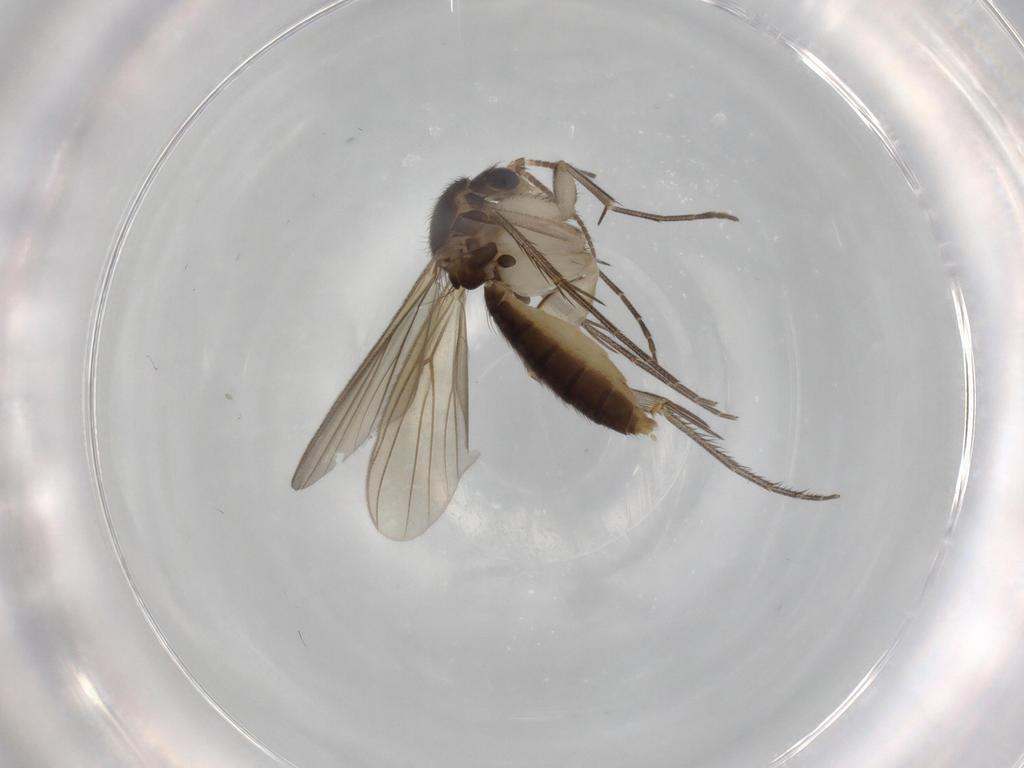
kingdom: Animalia
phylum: Arthropoda
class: Insecta
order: Diptera
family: Mycetophilidae
